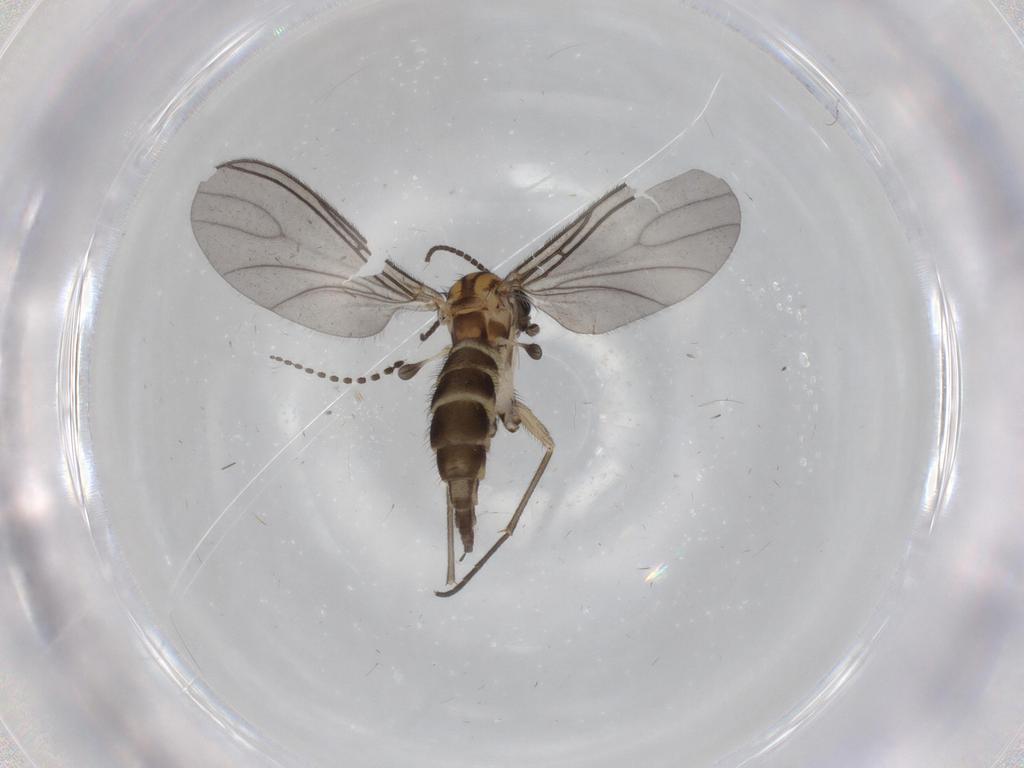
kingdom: Animalia
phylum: Arthropoda
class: Insecta
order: Diptera
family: Sciaridae
